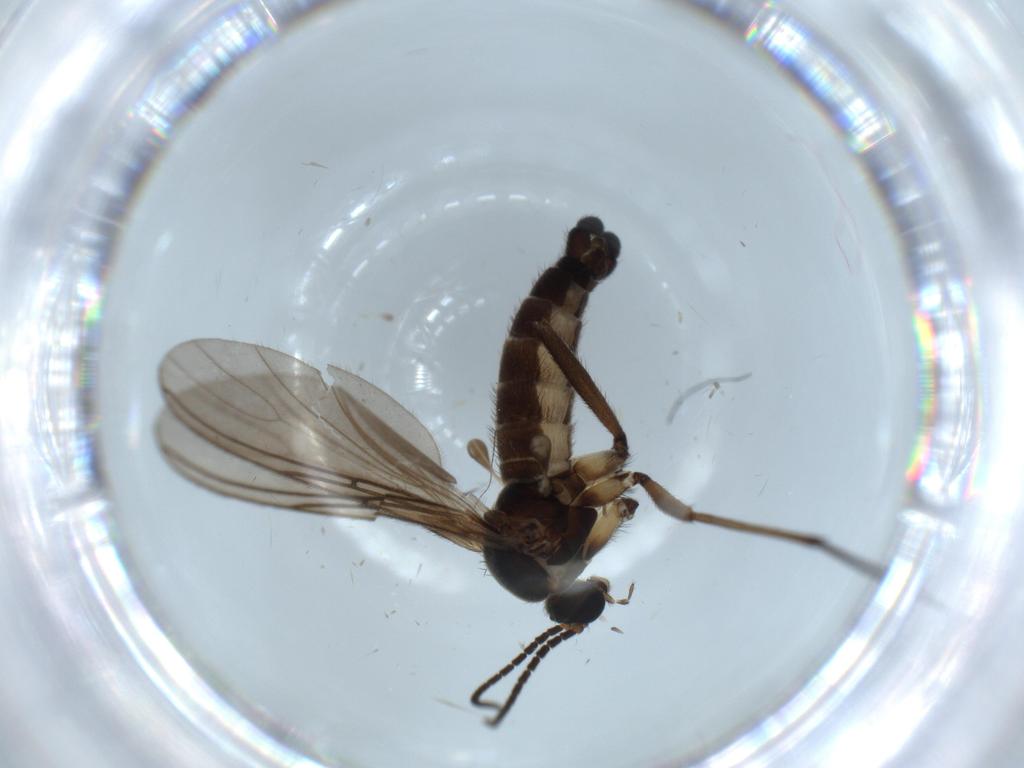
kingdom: Animalia
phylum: Arthropoda
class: Insecta
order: Diptera
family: Sciaridae
